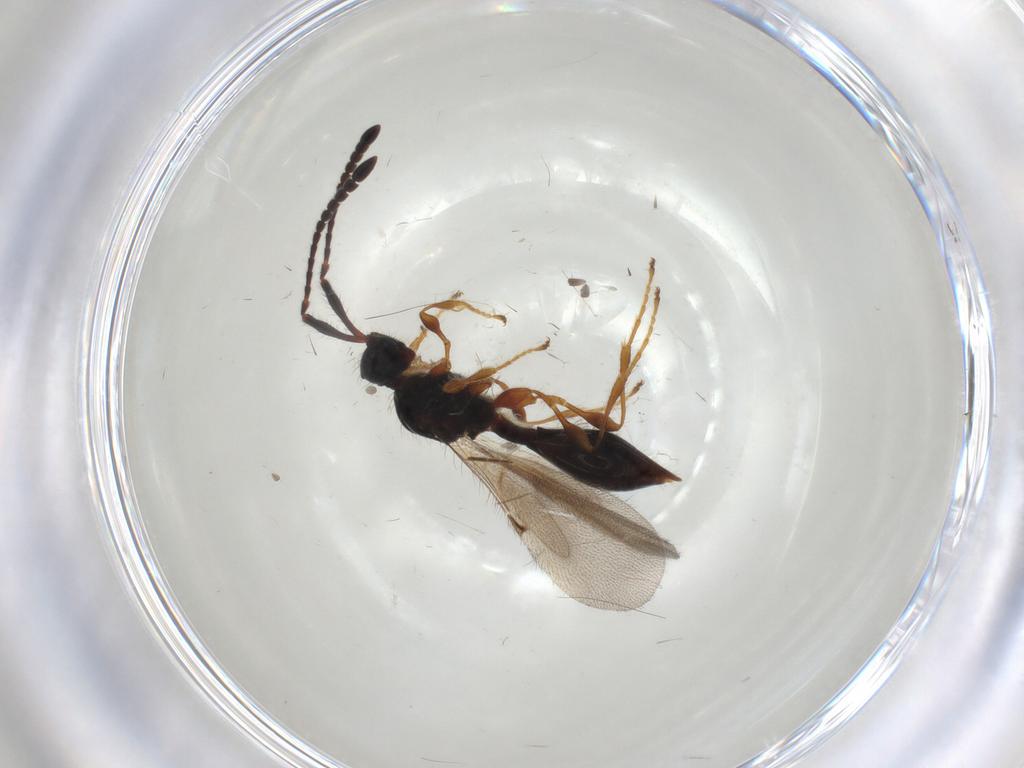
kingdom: Animalia
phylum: Arthropoda
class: Insecta
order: Hymenoptera
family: Diapriidae
